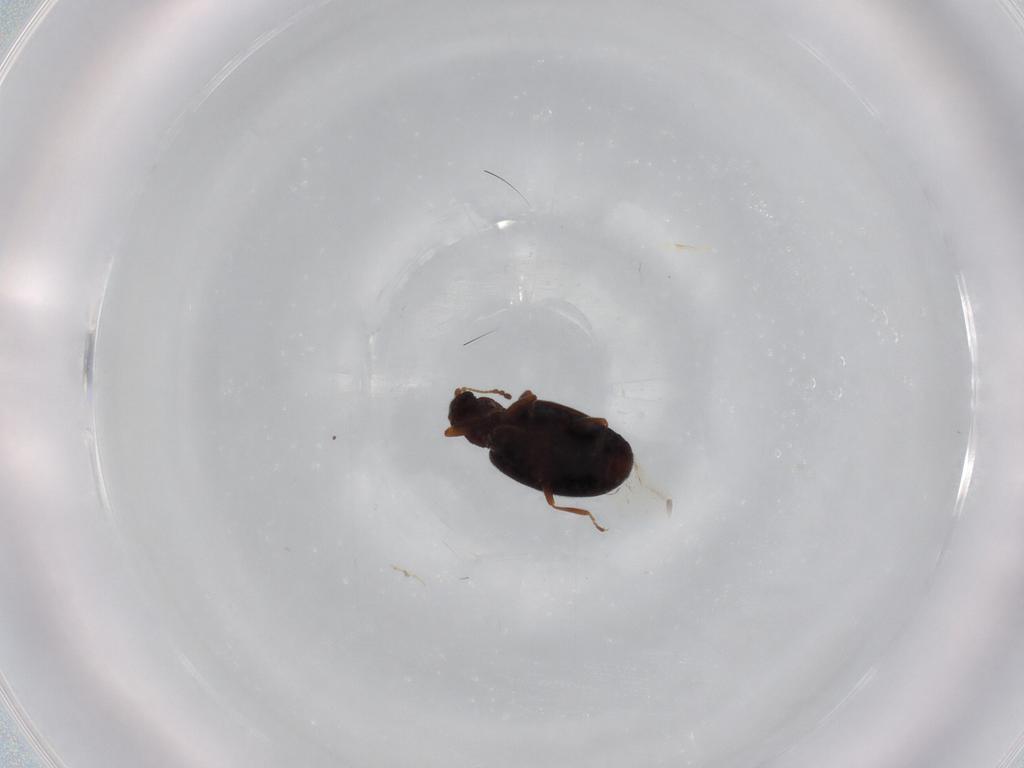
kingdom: Animalia
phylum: Arthropoda
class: Insecta
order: Coleoptera
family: Latridiidae
